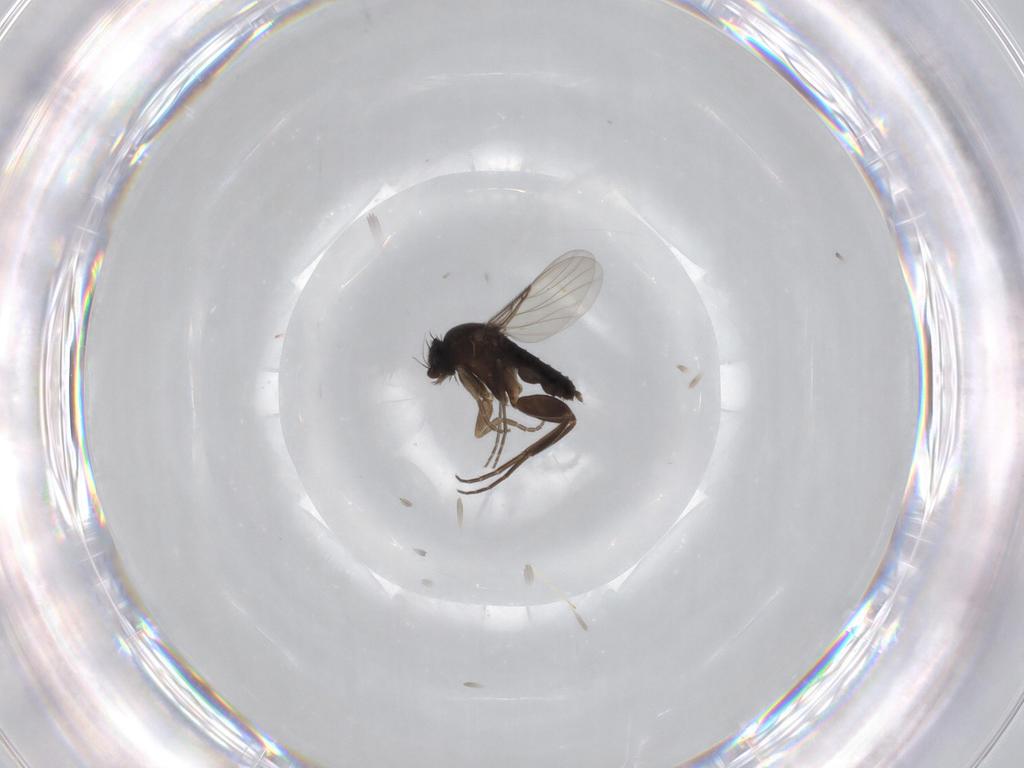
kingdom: Animalia
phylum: Arthropoda
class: Insecta
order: Diptera
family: Phoridae
